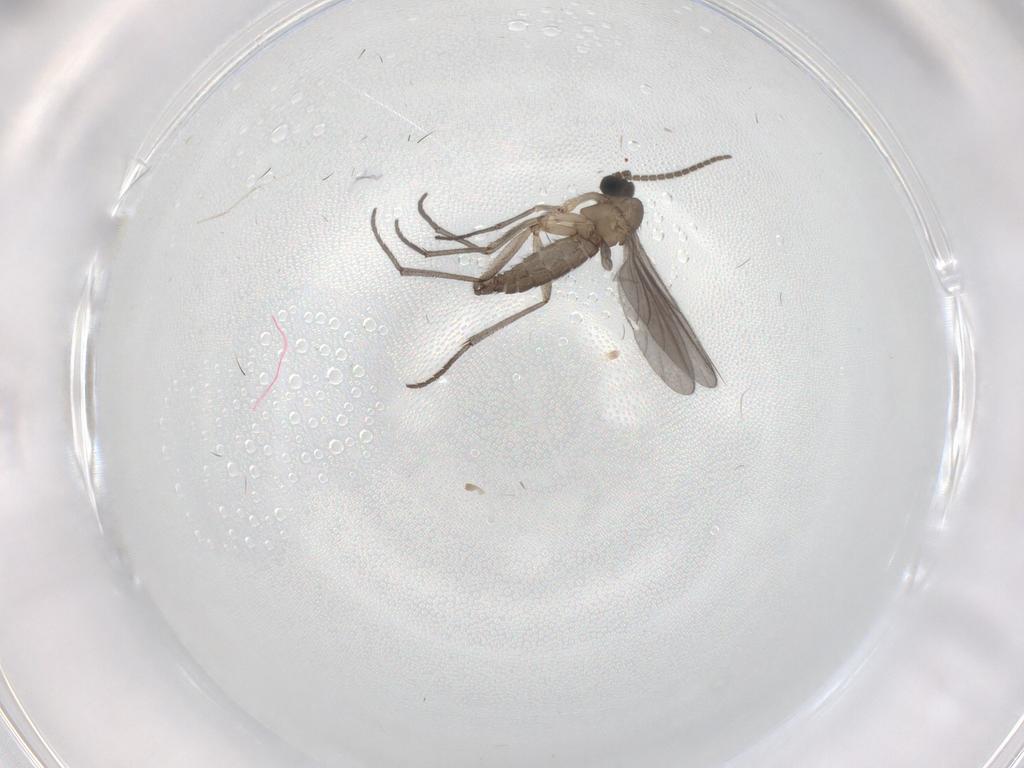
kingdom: Animalia
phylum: Arthropoda
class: Insecta
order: Diptera
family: Sciaridae
